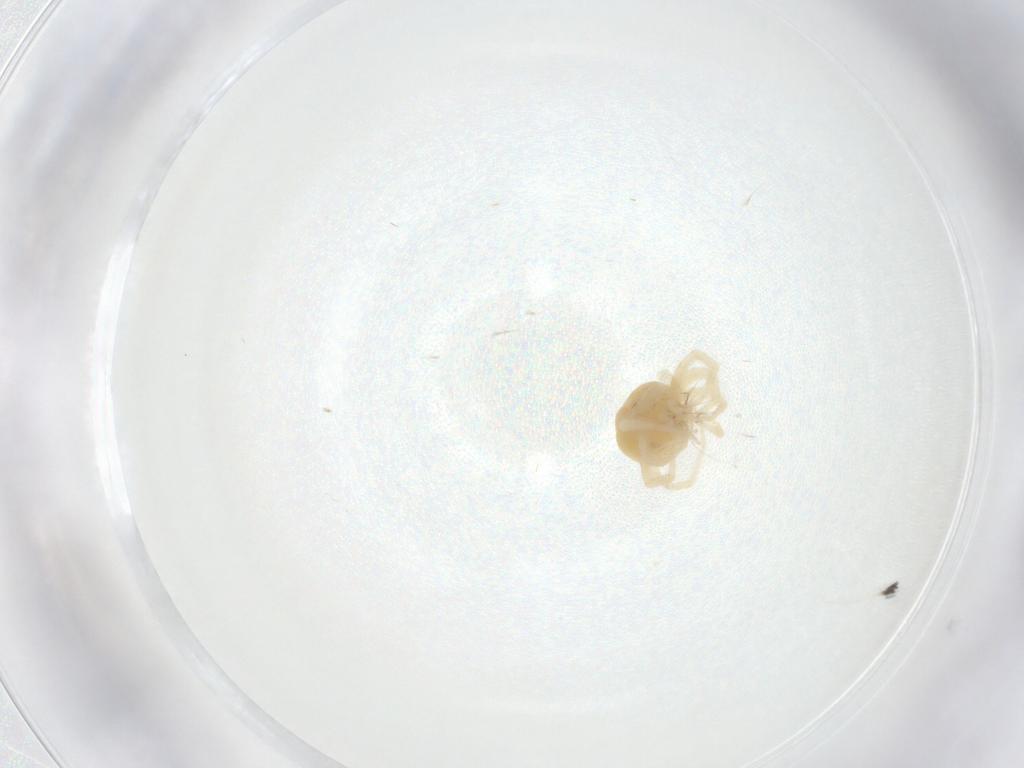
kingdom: Animalia
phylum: Arthropoda
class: Arachnida
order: Trombidiformes
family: Anystidae
